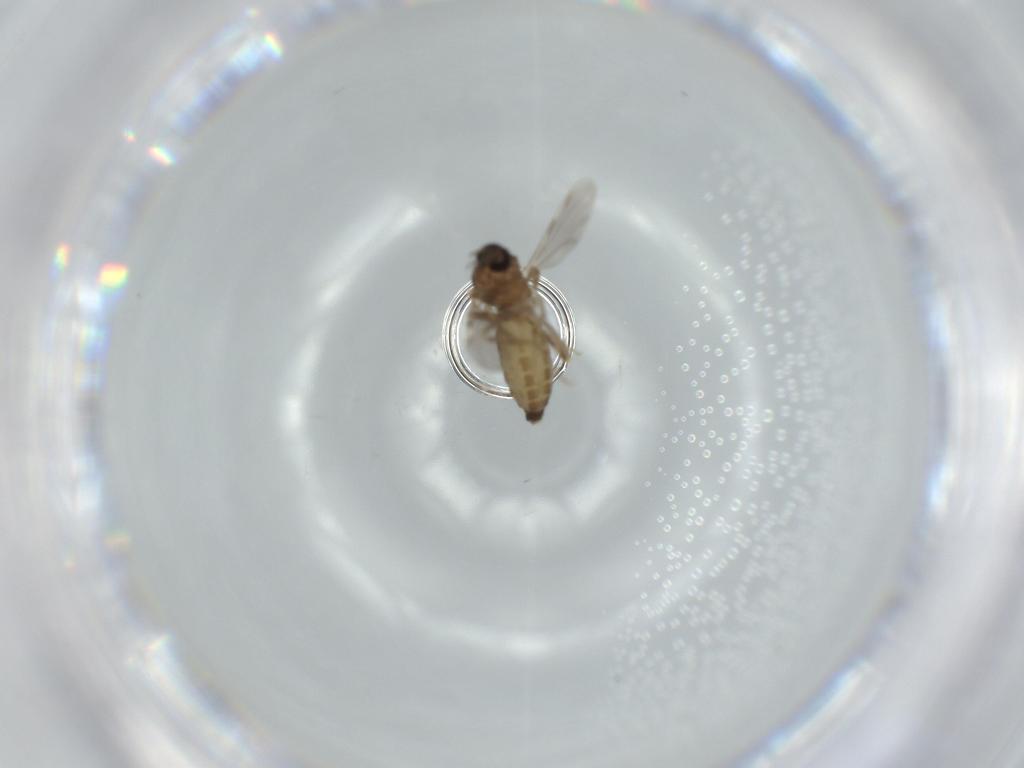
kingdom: Animalia
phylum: Arthropoda
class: Insecta
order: Diptera
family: Ceratopogonidae
